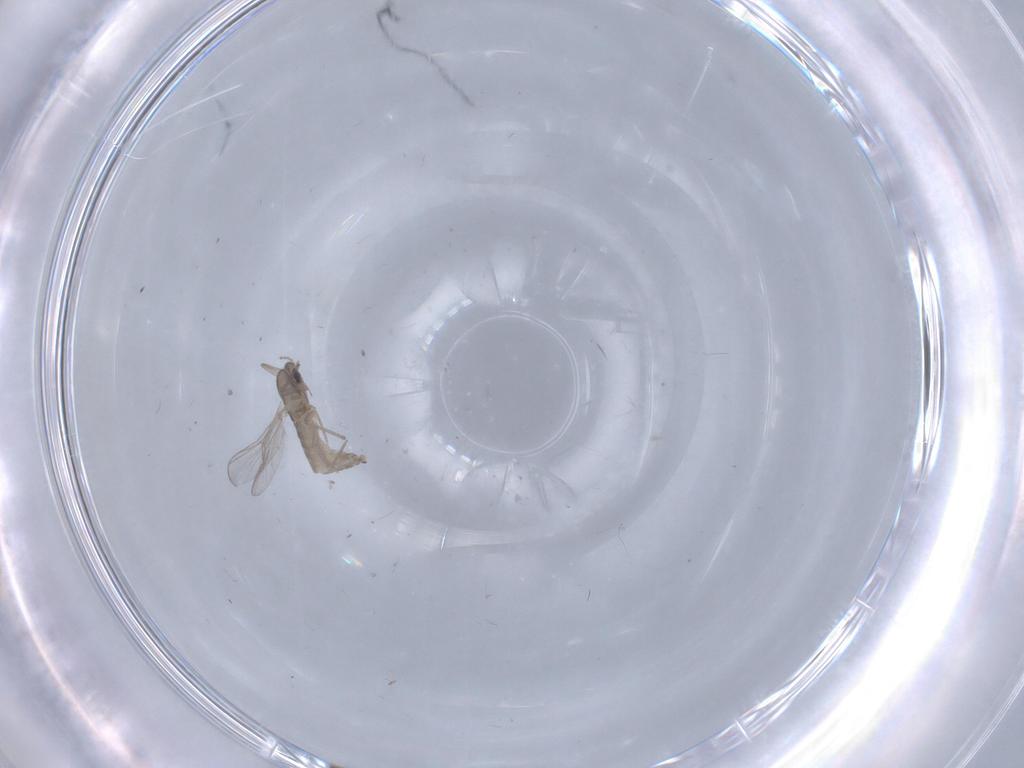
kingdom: Animalia
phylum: Arthropoda
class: Insecta
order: Diptera
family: Chironomidae
